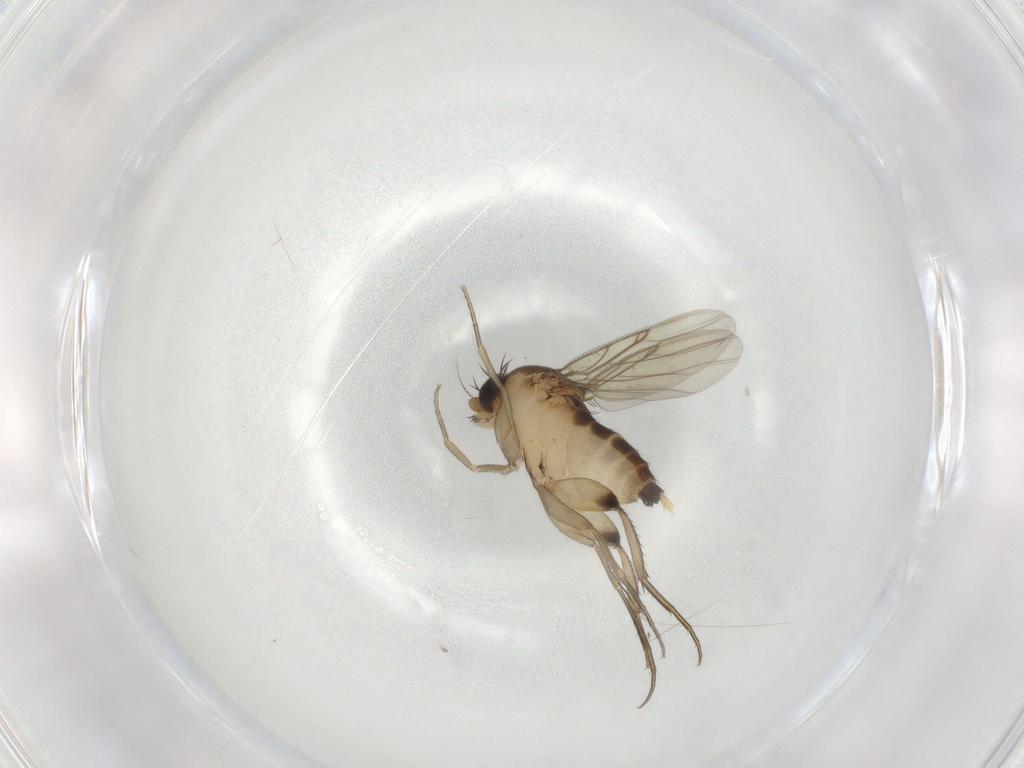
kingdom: Animalia
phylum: Arthropoda
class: Insecta
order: Diptera
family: Phoridae
